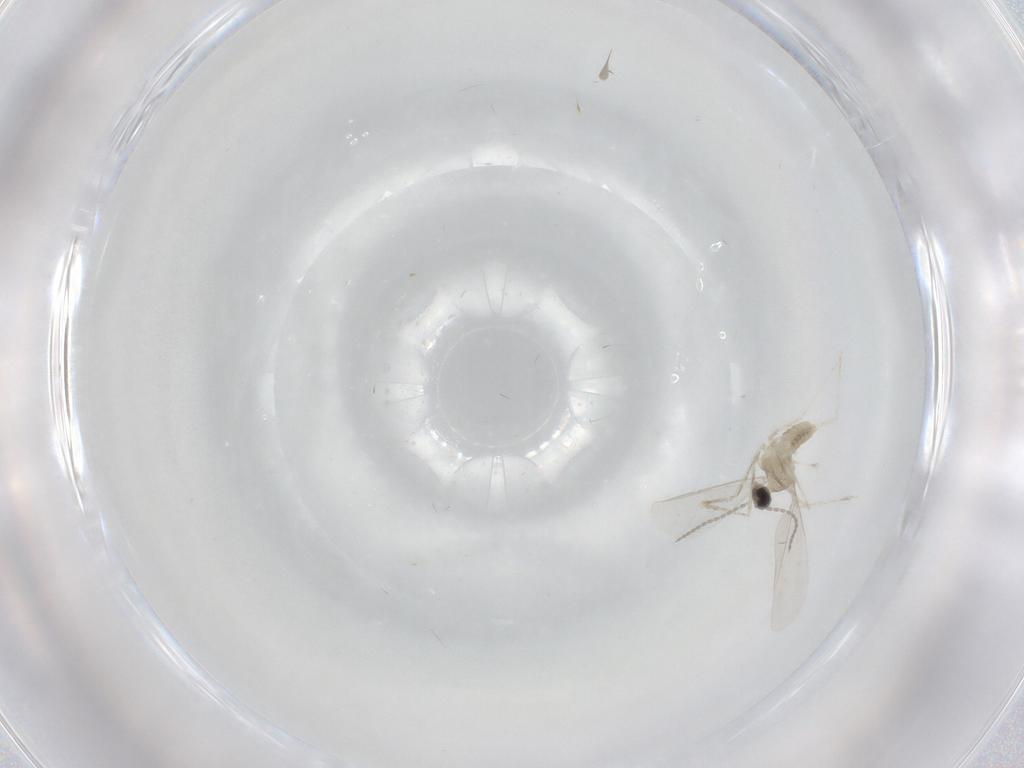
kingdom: Animalia
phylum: Arthropoda
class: Insecta
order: Diptera
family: Cecidomyiidae
